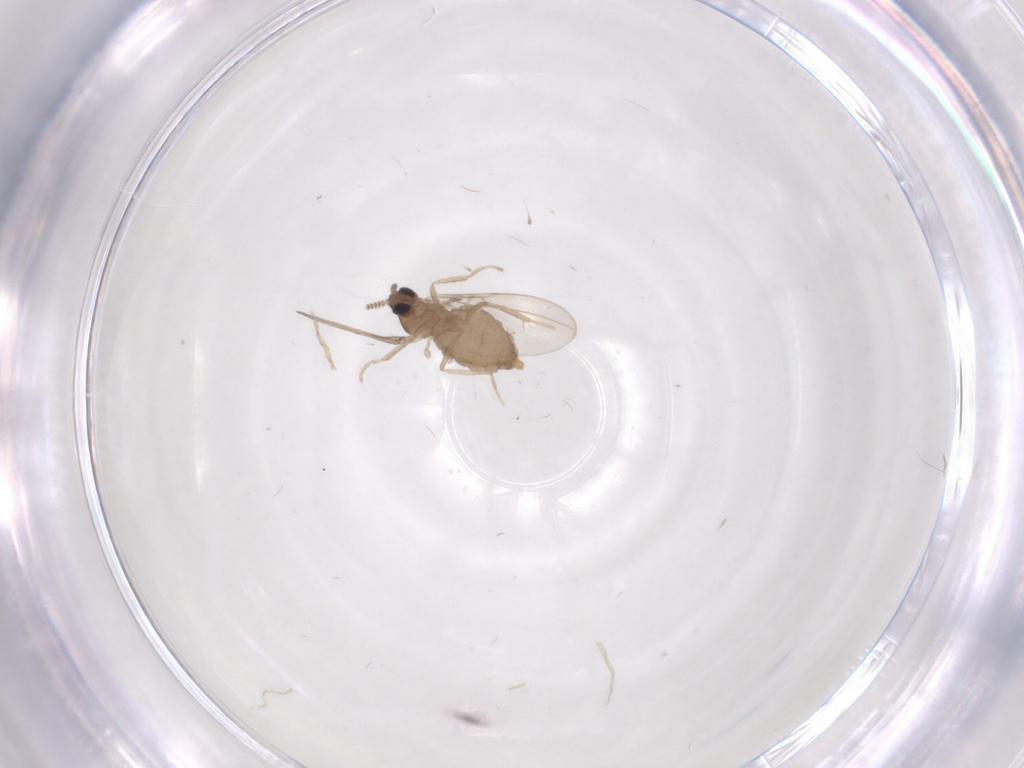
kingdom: Animalia
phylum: Arthropoda
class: Insecta
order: Diptera
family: Cecidomyiidae
